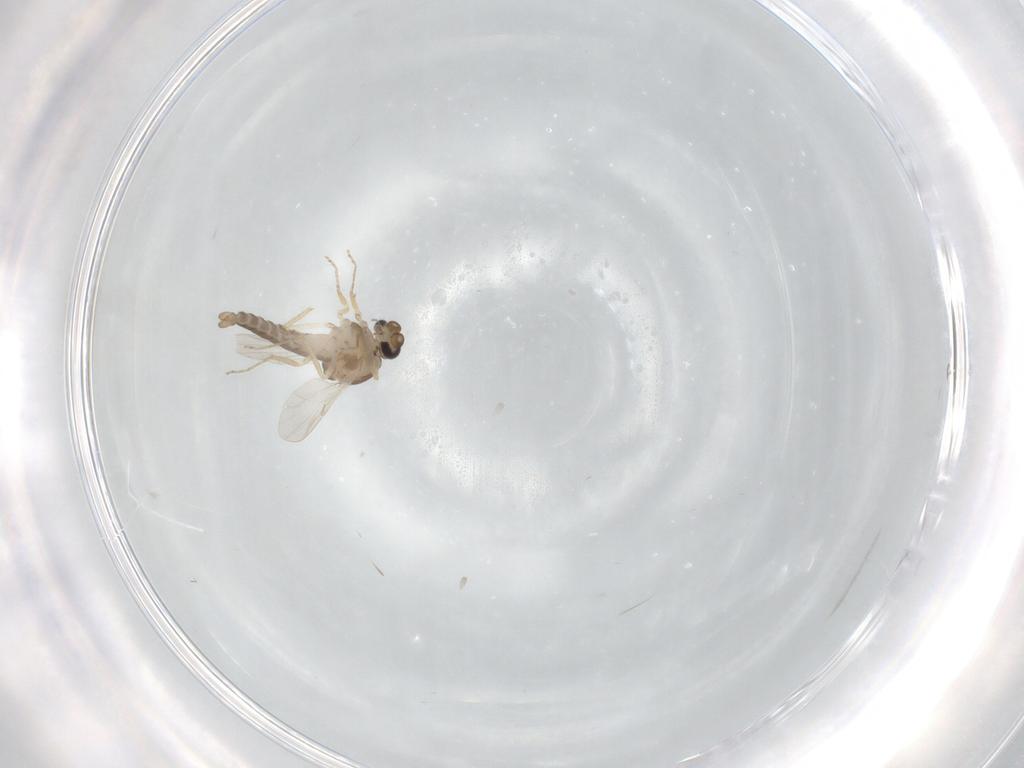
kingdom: Animalia
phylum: Arthropoda
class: Insecta
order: Diptera
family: Ceratopogonidae
